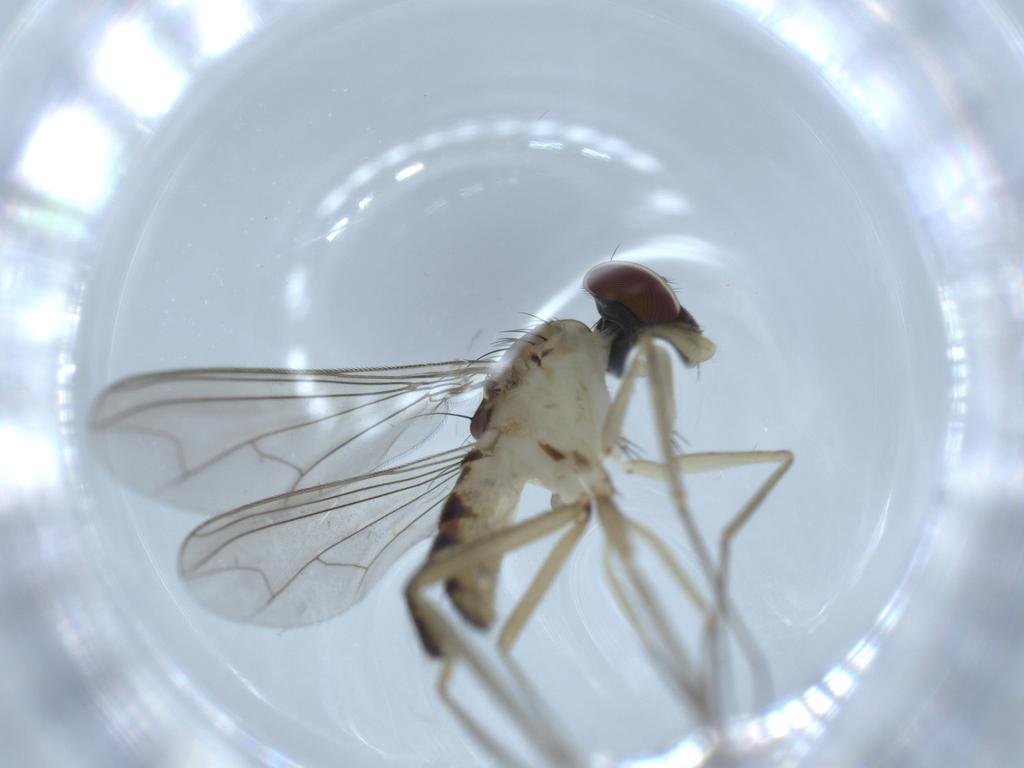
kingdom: Animalia
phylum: Arthropoda
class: Insecta
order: Diptera
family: Dolichopodidae
